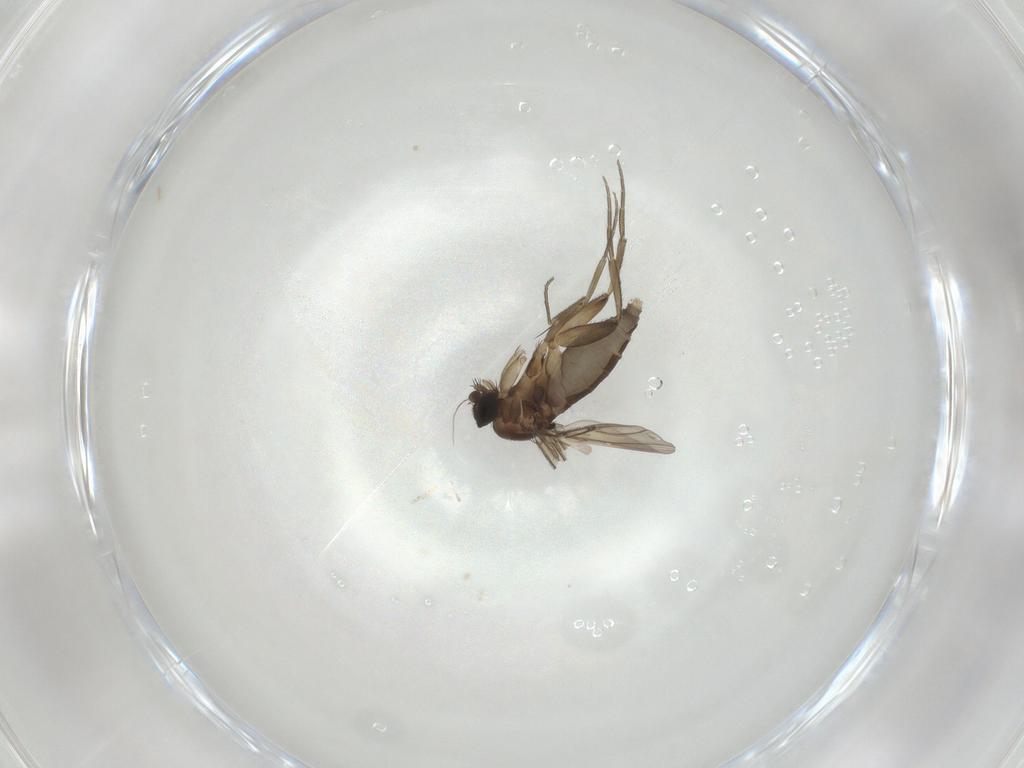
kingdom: Animalia
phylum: Arthropoda
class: Insecta
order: Diptera
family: Phoridae
